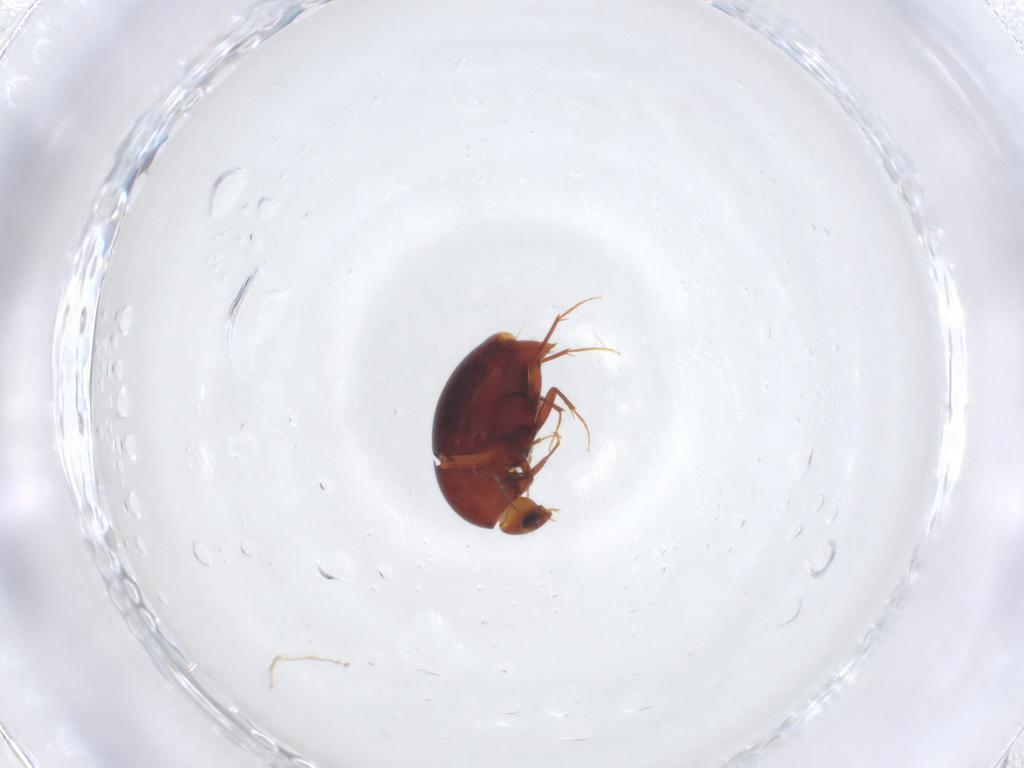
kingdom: Animalia
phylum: Arthropoda
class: Insecta
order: Coleoptera
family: Staphylinidae
